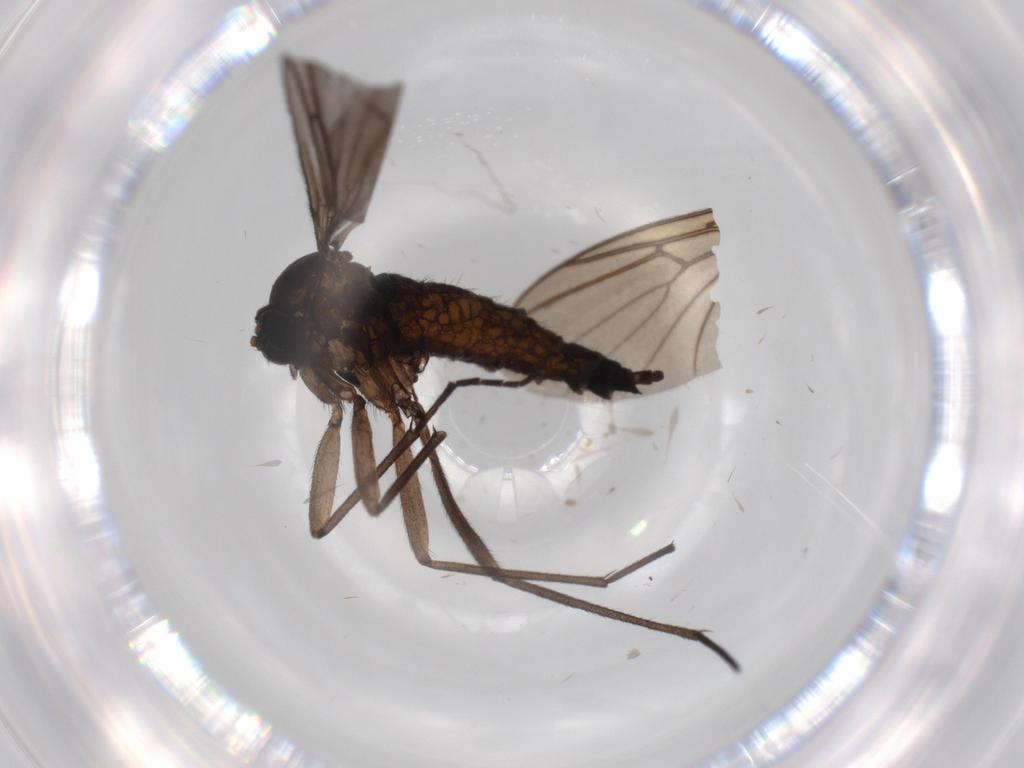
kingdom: Animalia
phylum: Arthropoda
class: Insecta
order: Diptera
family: Sciaridae
